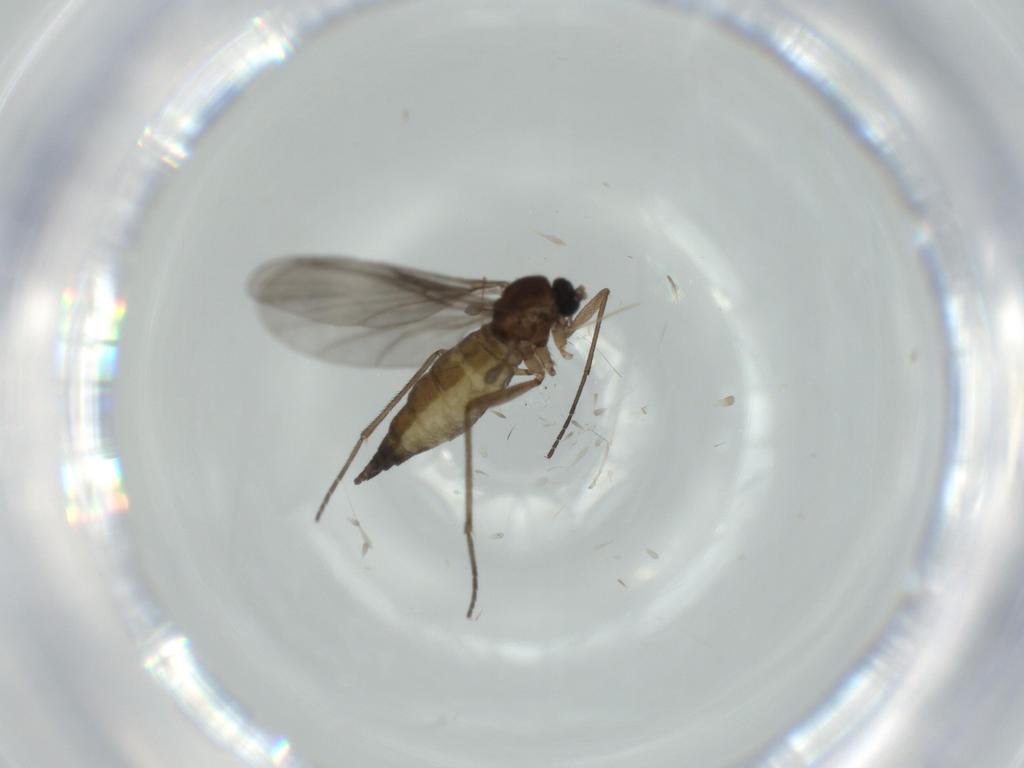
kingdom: Animalia
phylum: Arthropoda
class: Insecta
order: Diptera
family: Sciaridae
